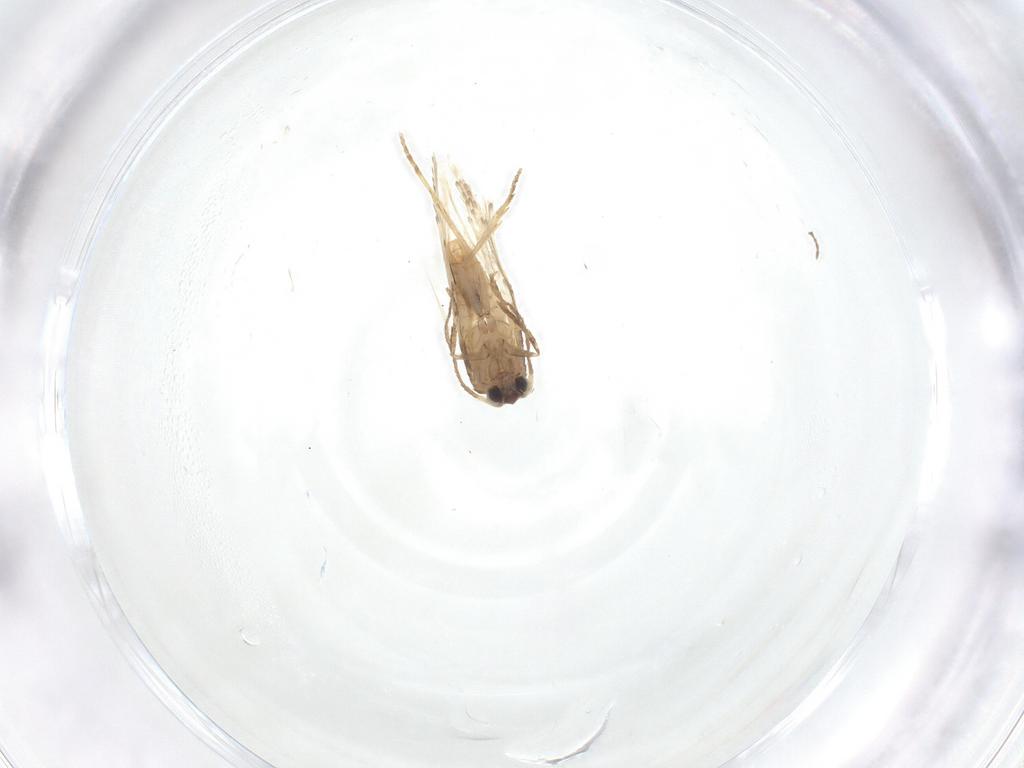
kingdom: Animalia
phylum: Arthropoda
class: Insecta
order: Lepidoptera
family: Nepticulidae
